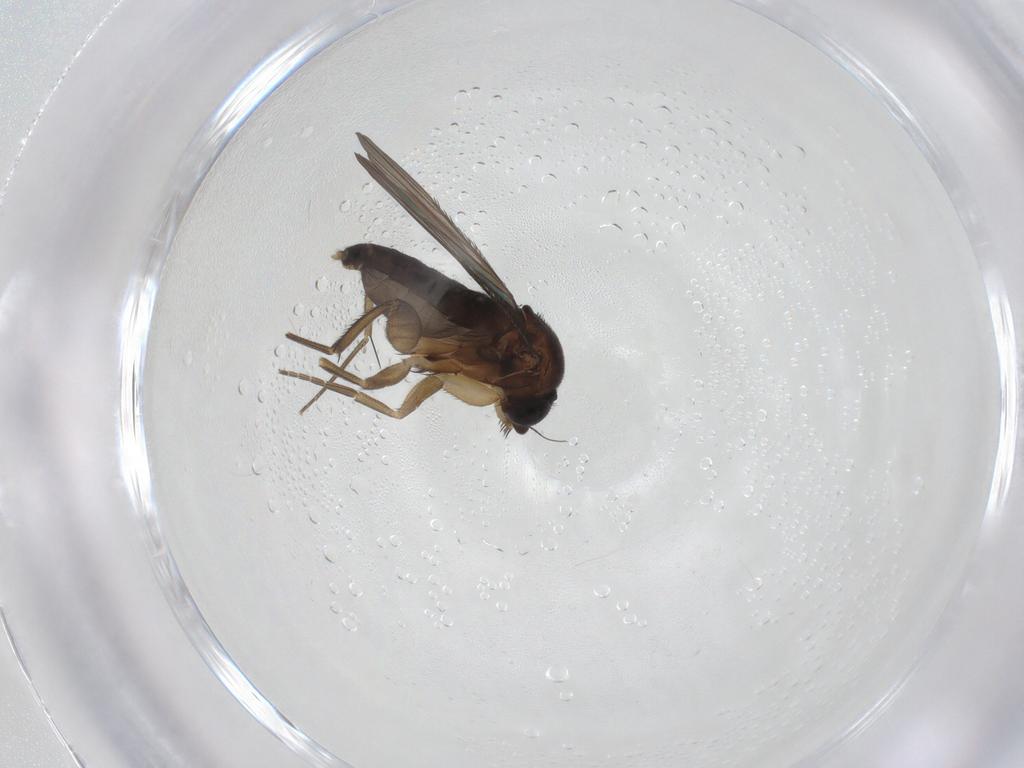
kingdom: Animalia
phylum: Arthropoda
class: Insecta
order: Diptera
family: Phoridae
